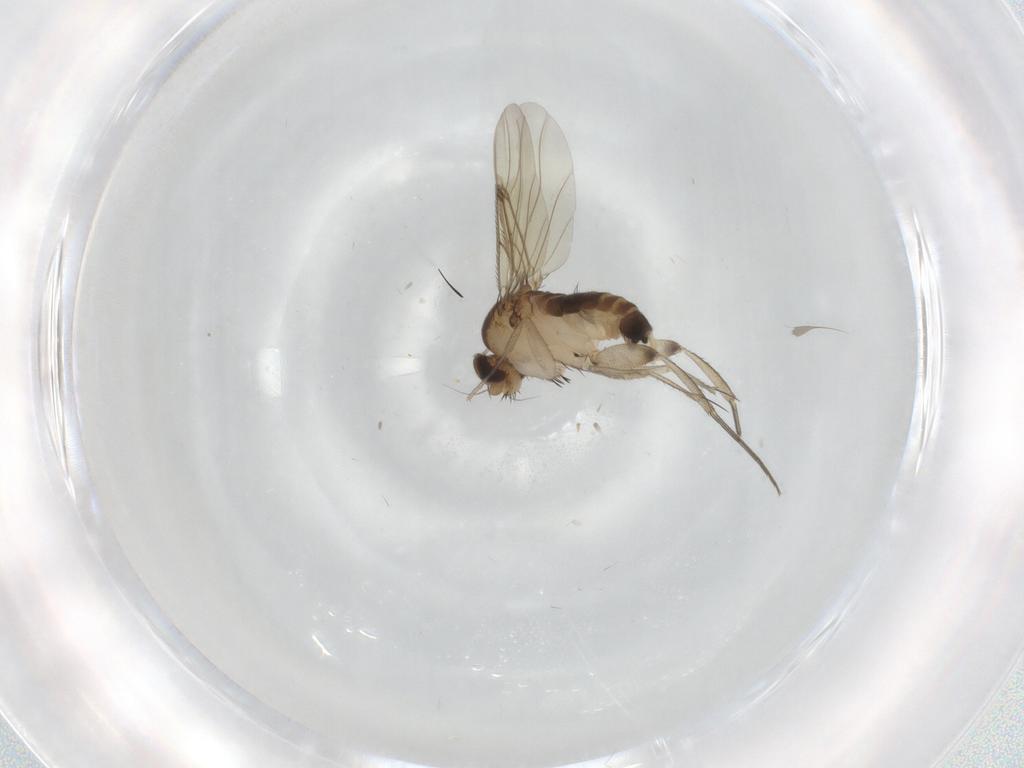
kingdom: Animalia
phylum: Arthropoda
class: Insecta
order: Diptera
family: Phoridae
